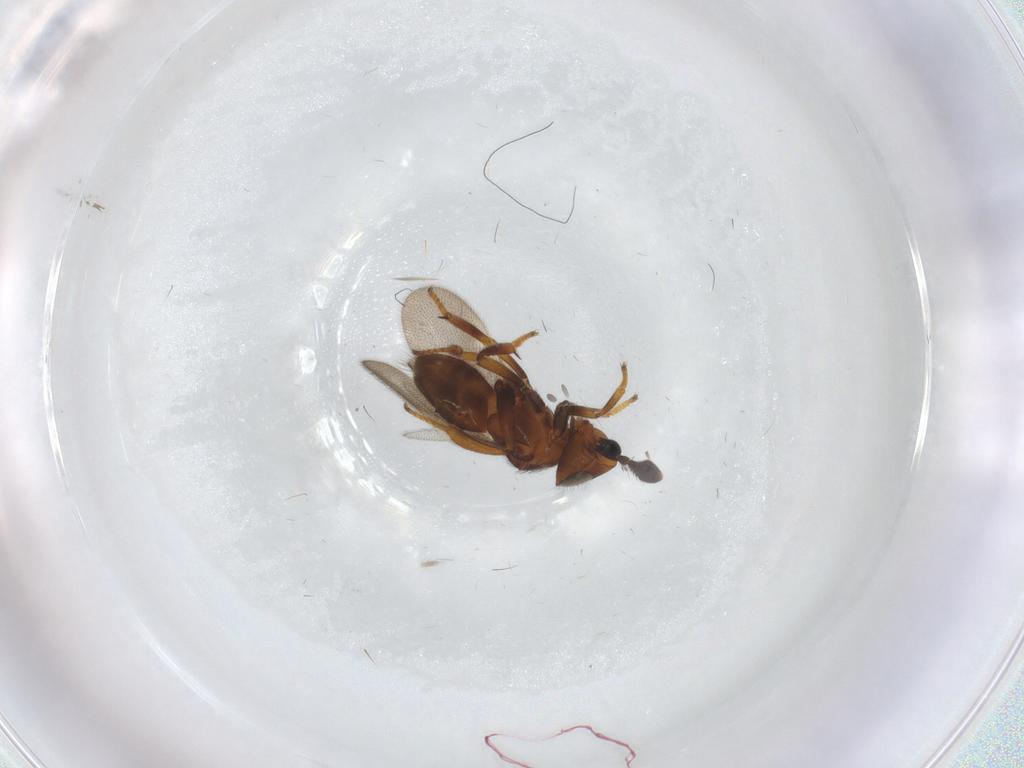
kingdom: Animalia
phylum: Arthropoda
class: Insecta
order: Hymenoptera
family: Encyrtidae
